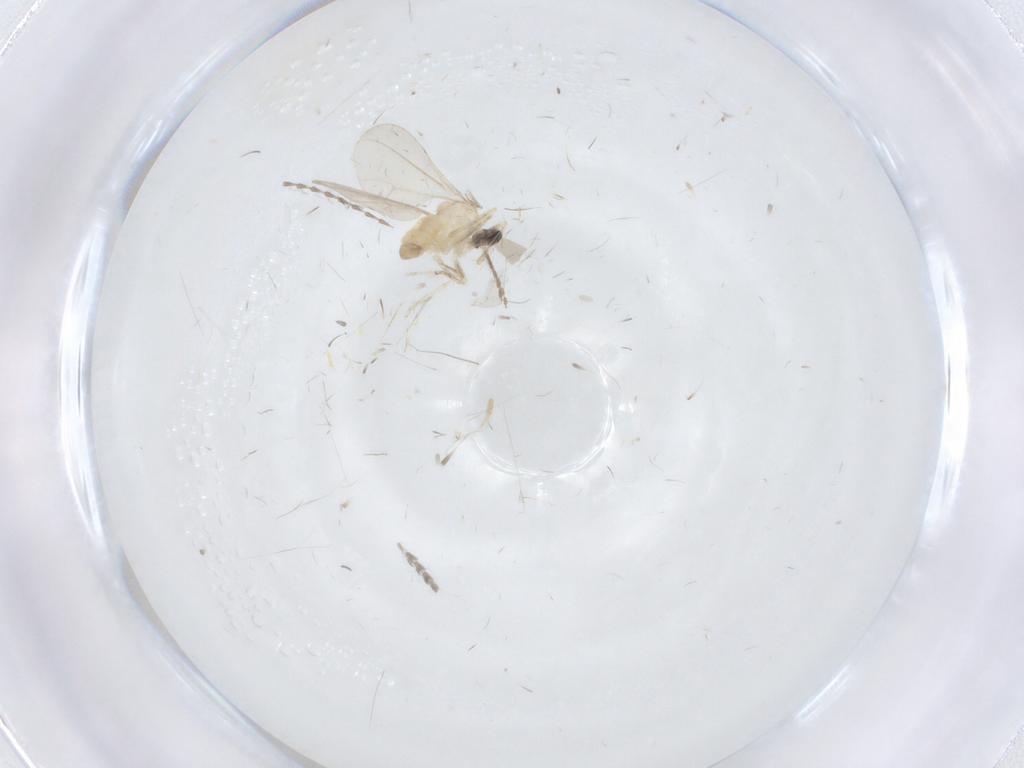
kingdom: Animalia
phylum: Arthropoda
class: Insecta
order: Diptera
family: Cecidomyiidae
